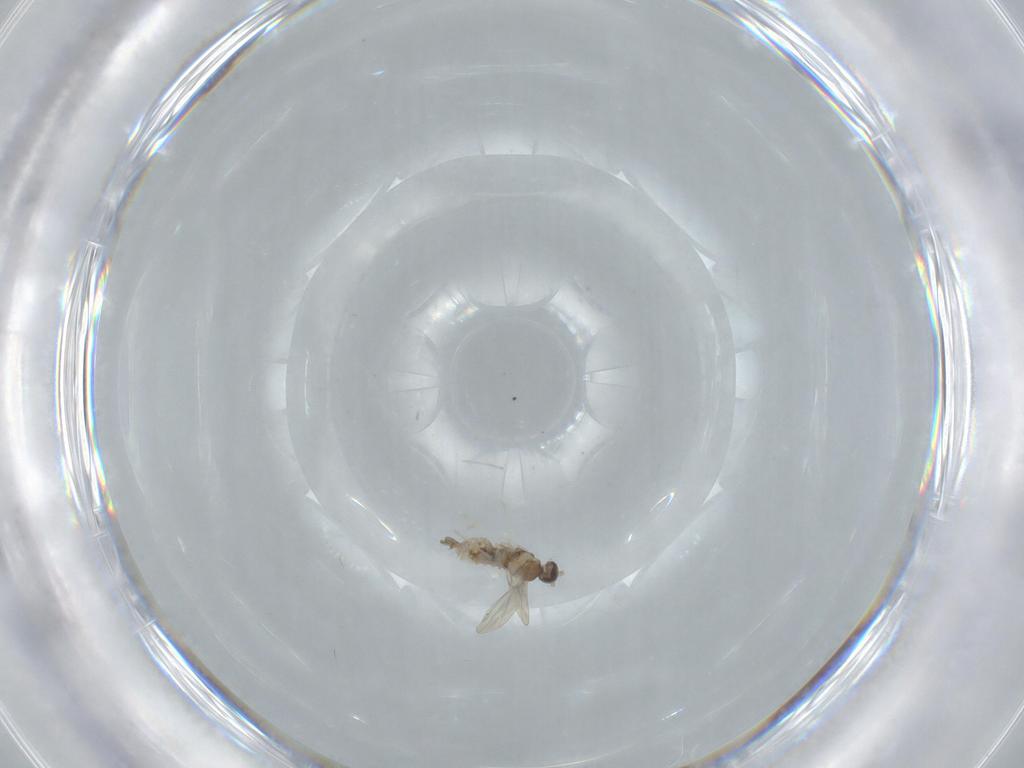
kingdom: Animalia
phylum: Arthropoda
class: Insecta
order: Diptera
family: Cecidomyiidae
